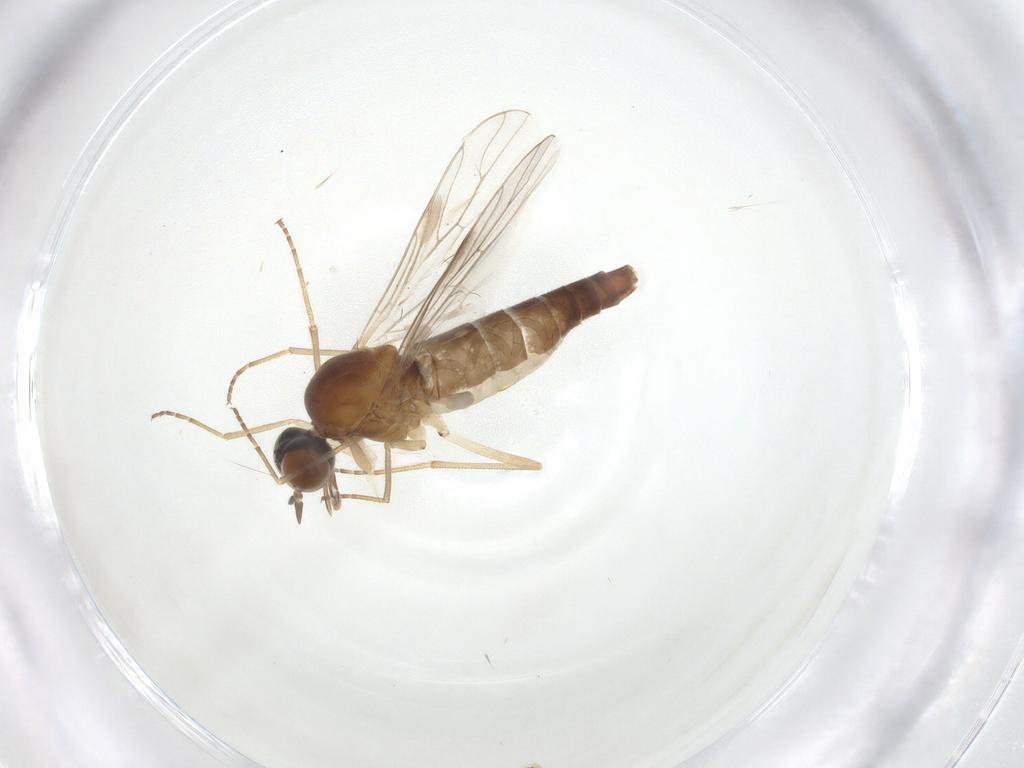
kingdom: Animalia
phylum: Arthropoda
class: Insecta
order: Diptera
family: Scenopinidae
